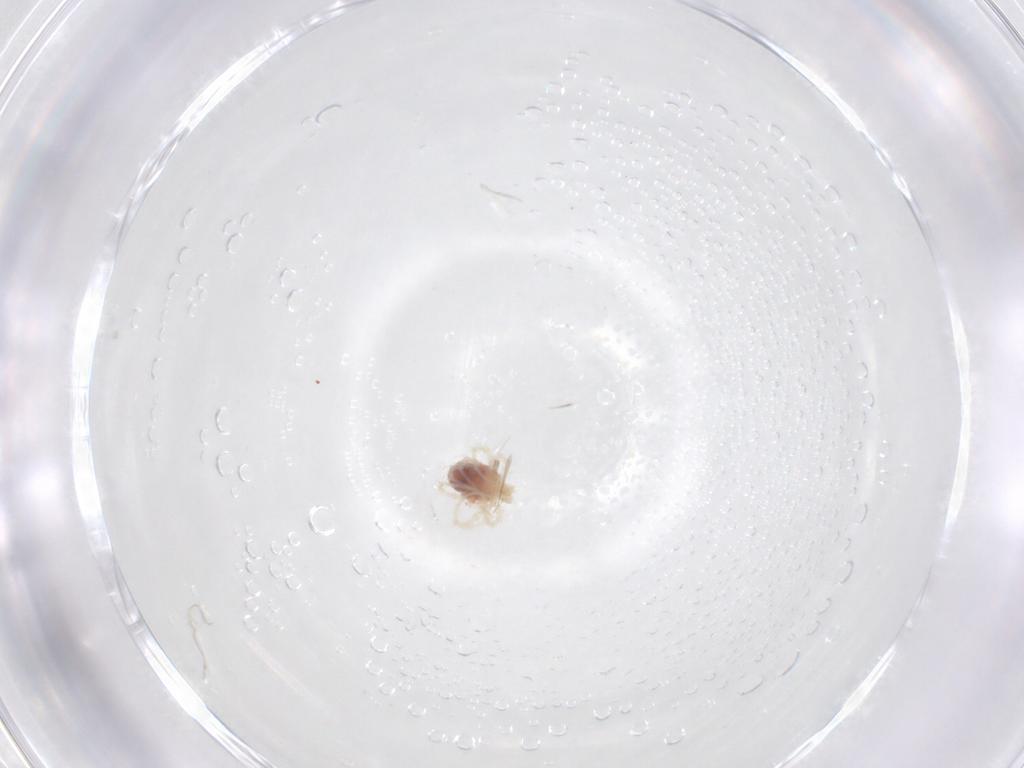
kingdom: Animalia
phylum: Arthropoda
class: Arachnida
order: Trombidiformes
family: Anystidae
